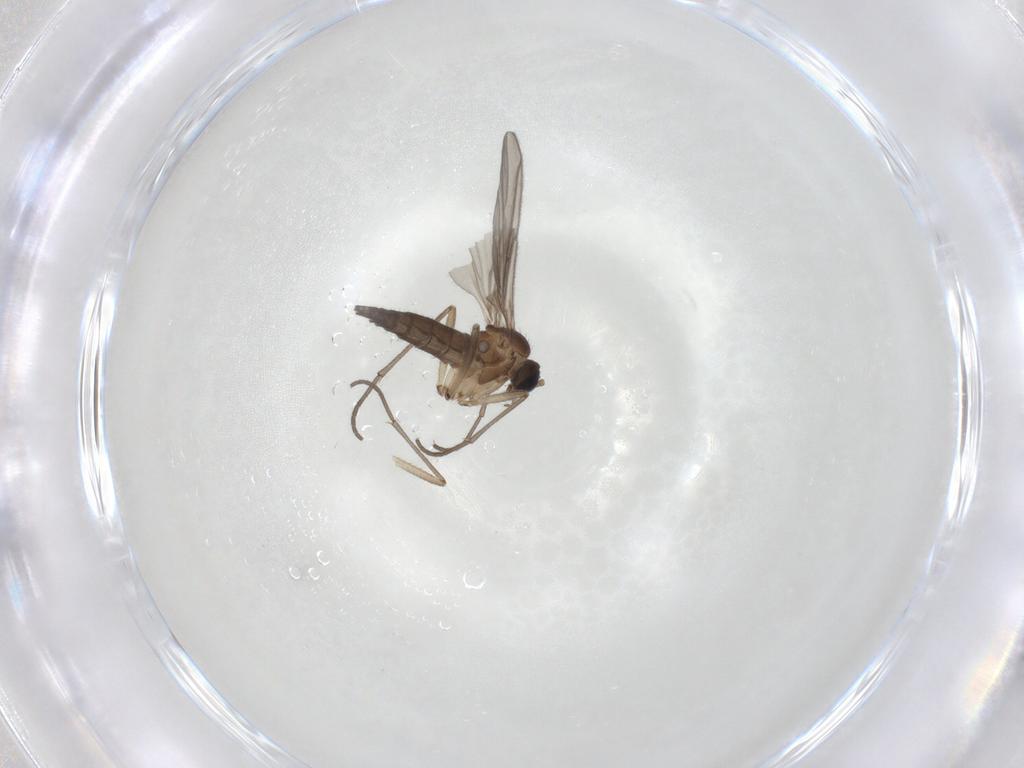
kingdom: Animalia
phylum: Arthropoda
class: Insecta
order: Diptera
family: Sciaridae
